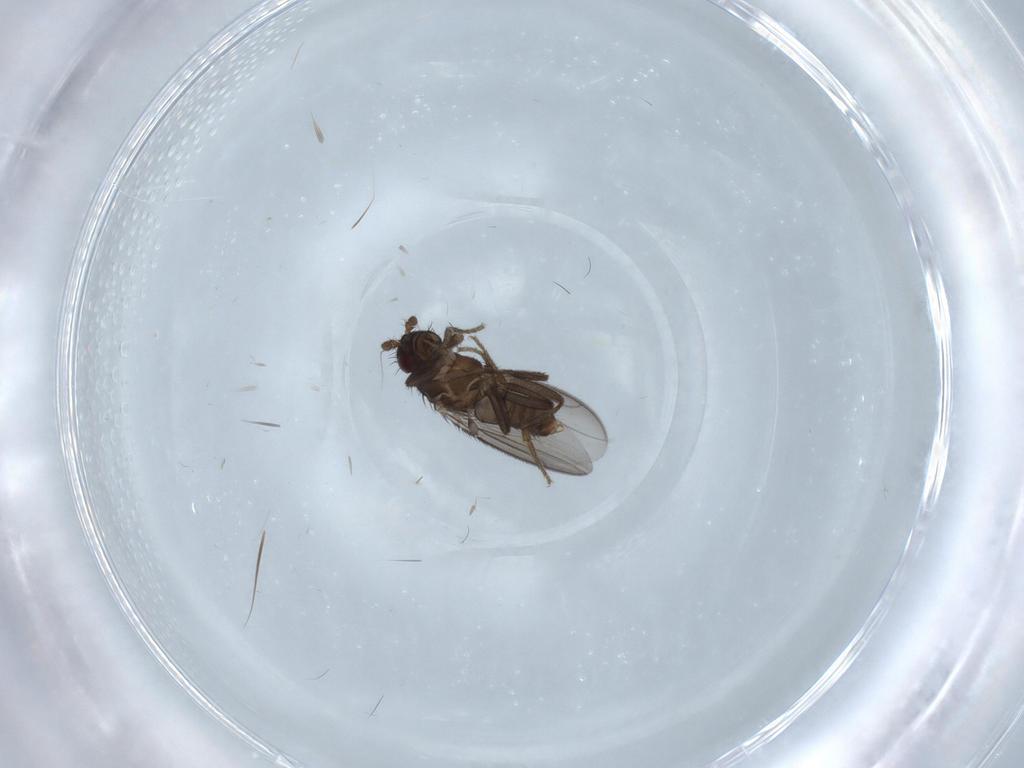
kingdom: Animalia
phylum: Arthropoda
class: Insecta
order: Diptera
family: Sphaeroceridae
